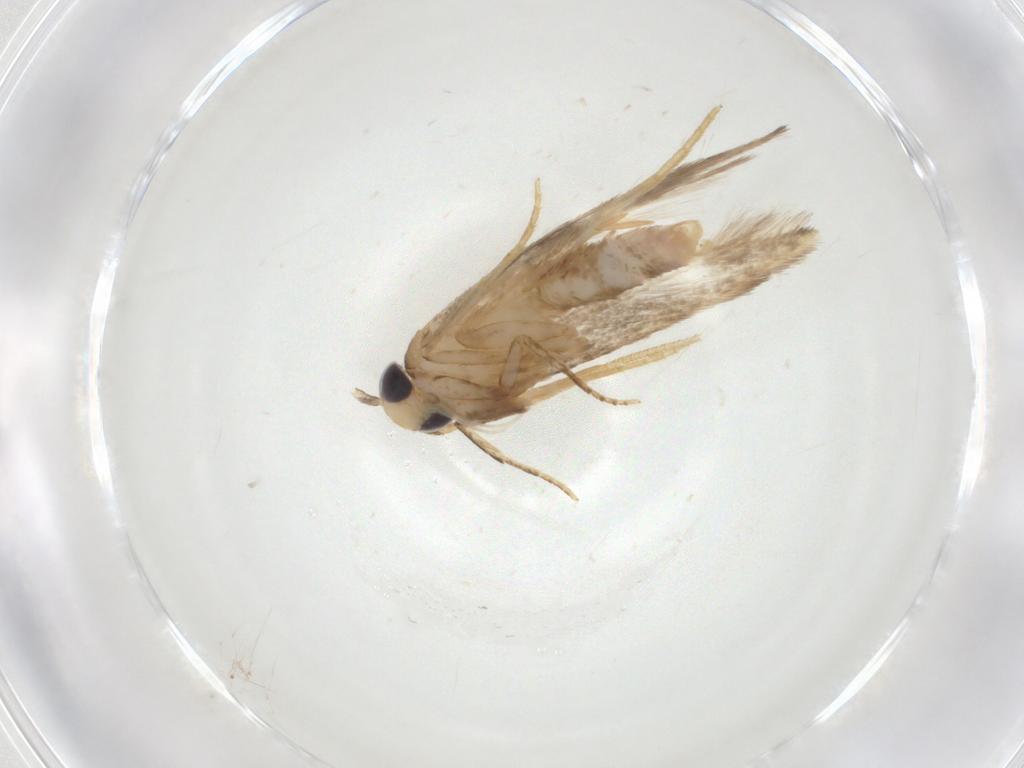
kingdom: Animalia
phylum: Arthropoda
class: Insecta
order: Lepidoptera
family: Coleophoridae
